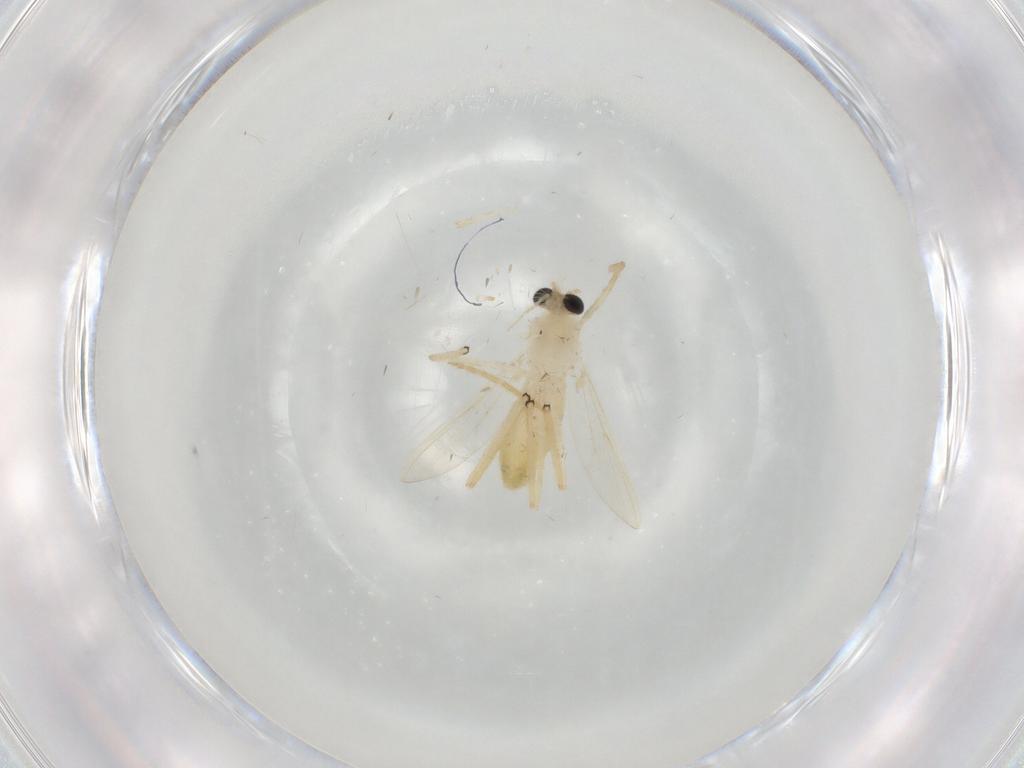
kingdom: Animalia
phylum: Arthropoda
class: Insecta
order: Diptera
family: Chironomidae
